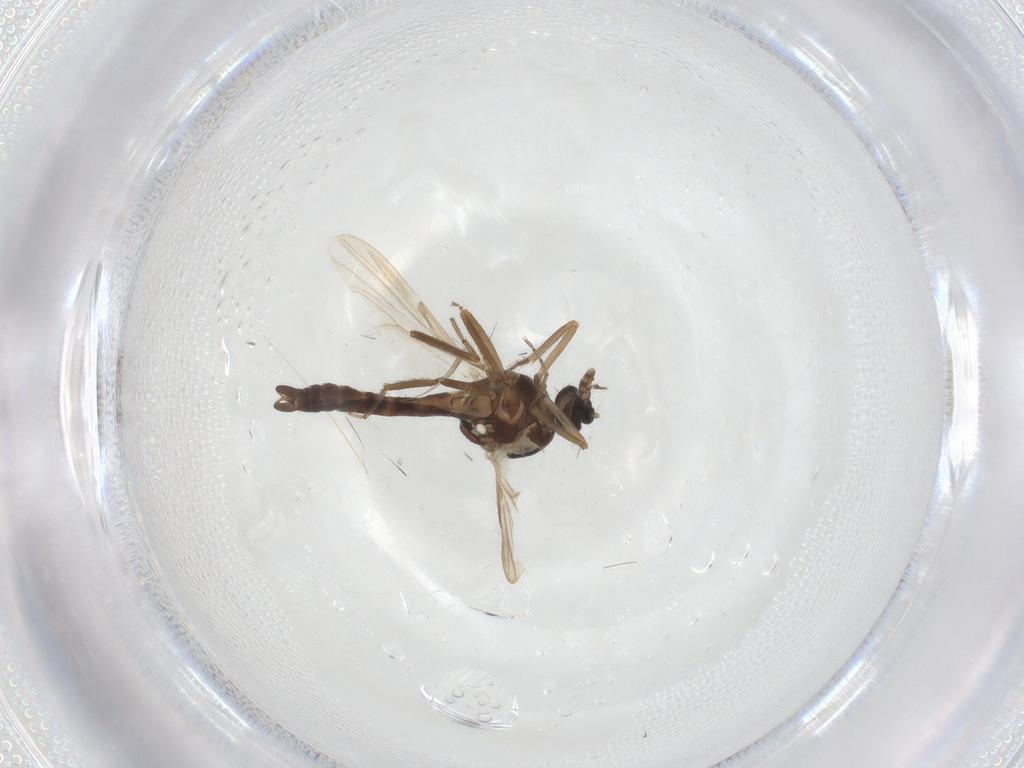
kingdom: Animalia
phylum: Arthropoda
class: Insecta
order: Diptera
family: Ceratopogonidae
